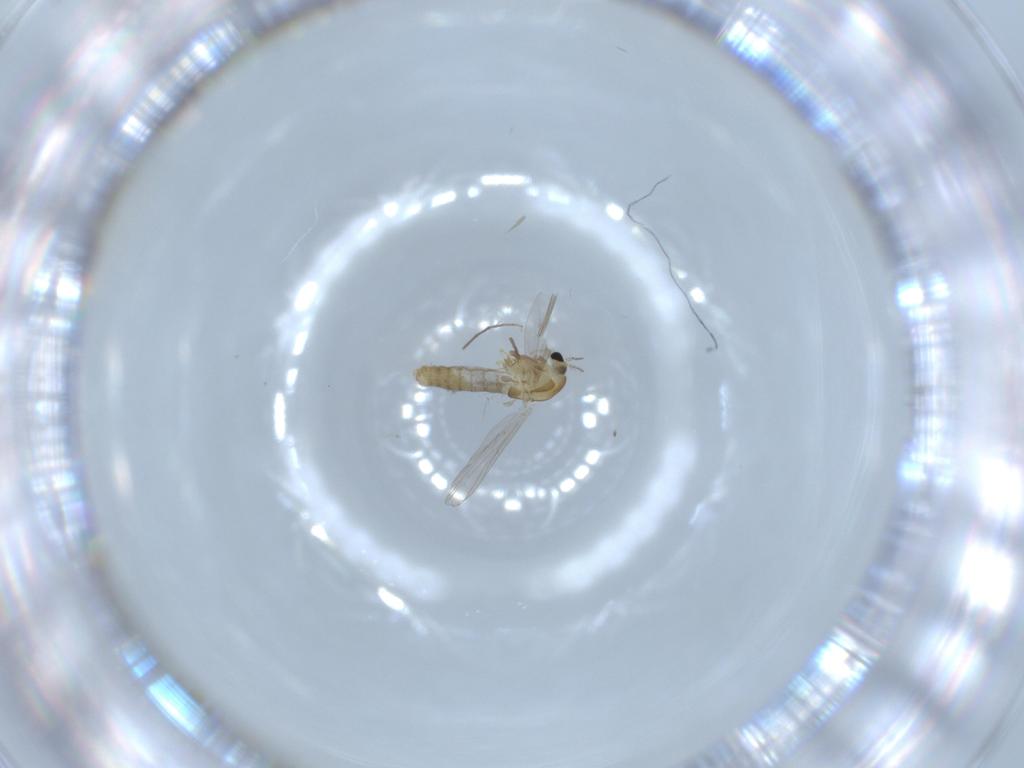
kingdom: Animalia
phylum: Arthropoda
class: Insecta
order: Diptera
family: Chironomidae
